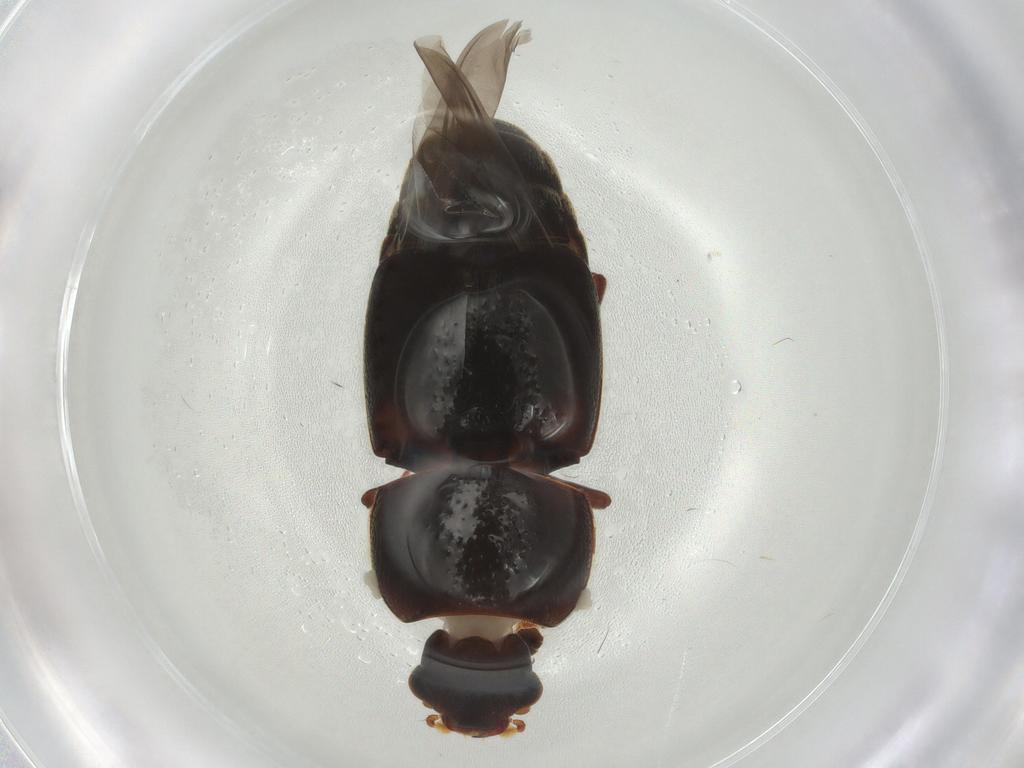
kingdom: Animalia
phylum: Arthropoda
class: Insecta
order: Coleoptera
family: Nitidulidae
